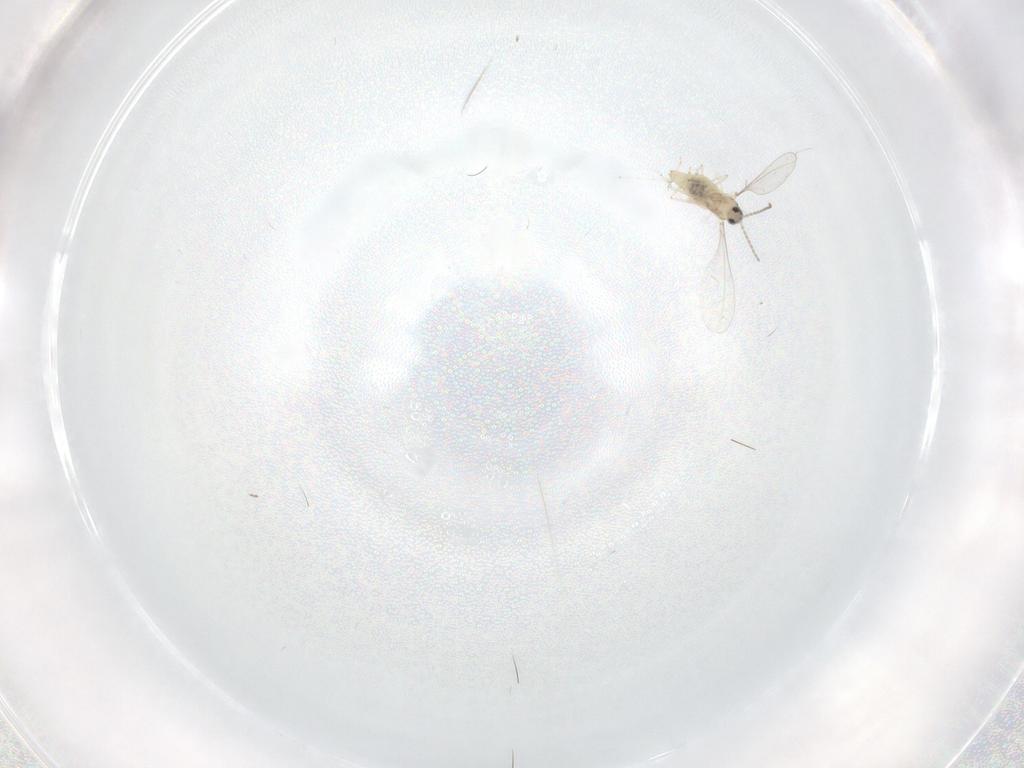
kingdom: Animalia
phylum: Arthropoda
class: Insecta
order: Diptera
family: Cecidomyiidae
